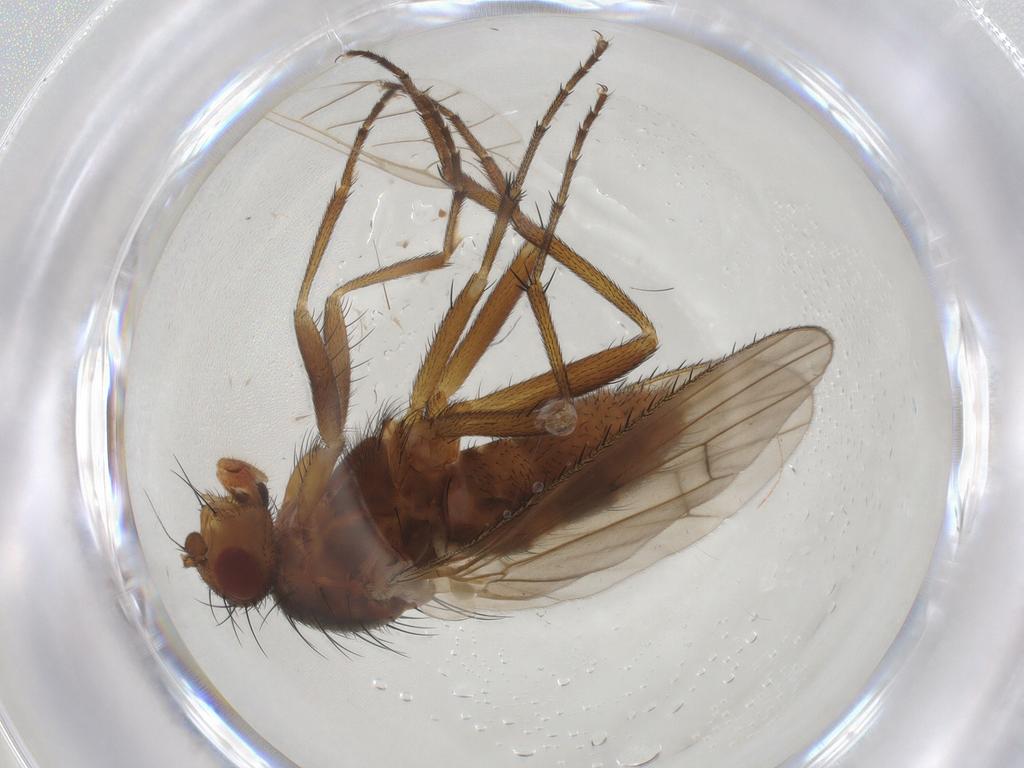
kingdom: Animalia
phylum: Arthropoda
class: Insecta
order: Diptera
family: Heleomyzidae
